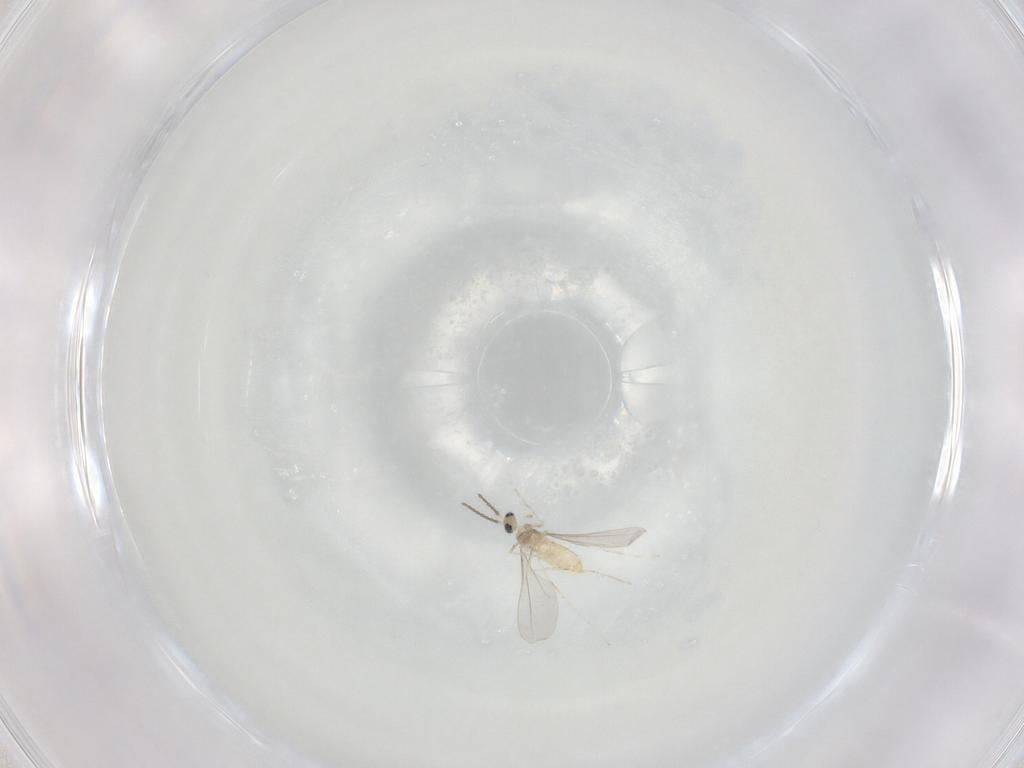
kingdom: Animalia
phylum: Arthropoda
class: Insecta
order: Diptera
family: Cecidomyiidae
